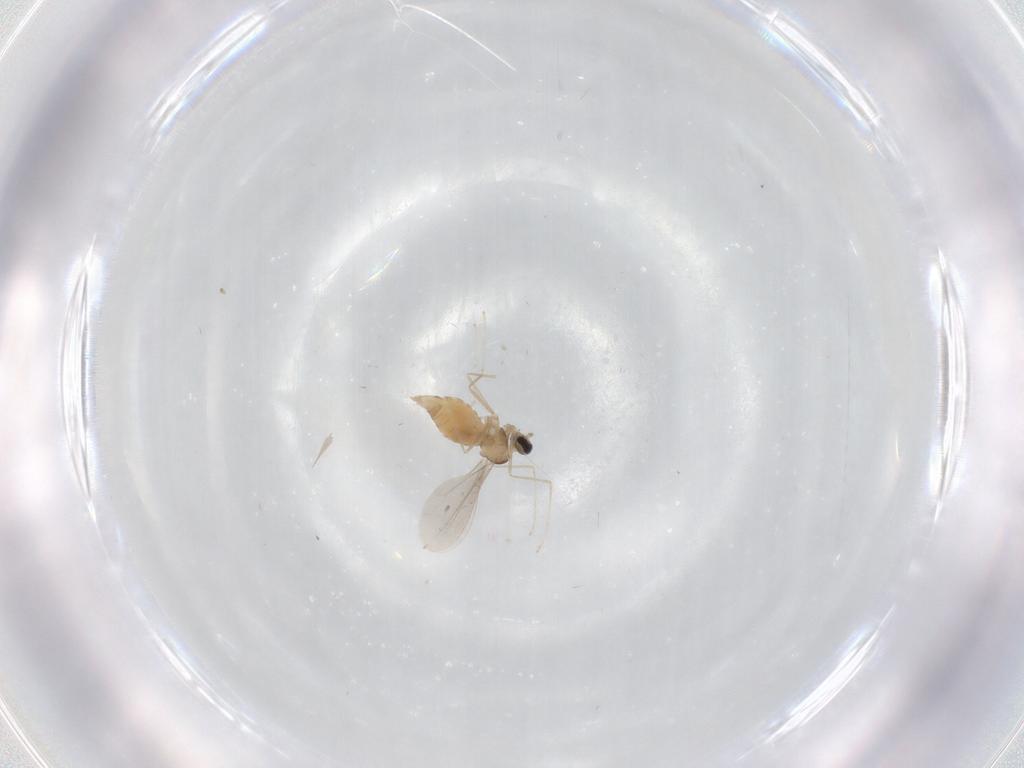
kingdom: Animalia
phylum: Arthropoda
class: Insecta
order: Diptera
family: Cecidomyiidae
